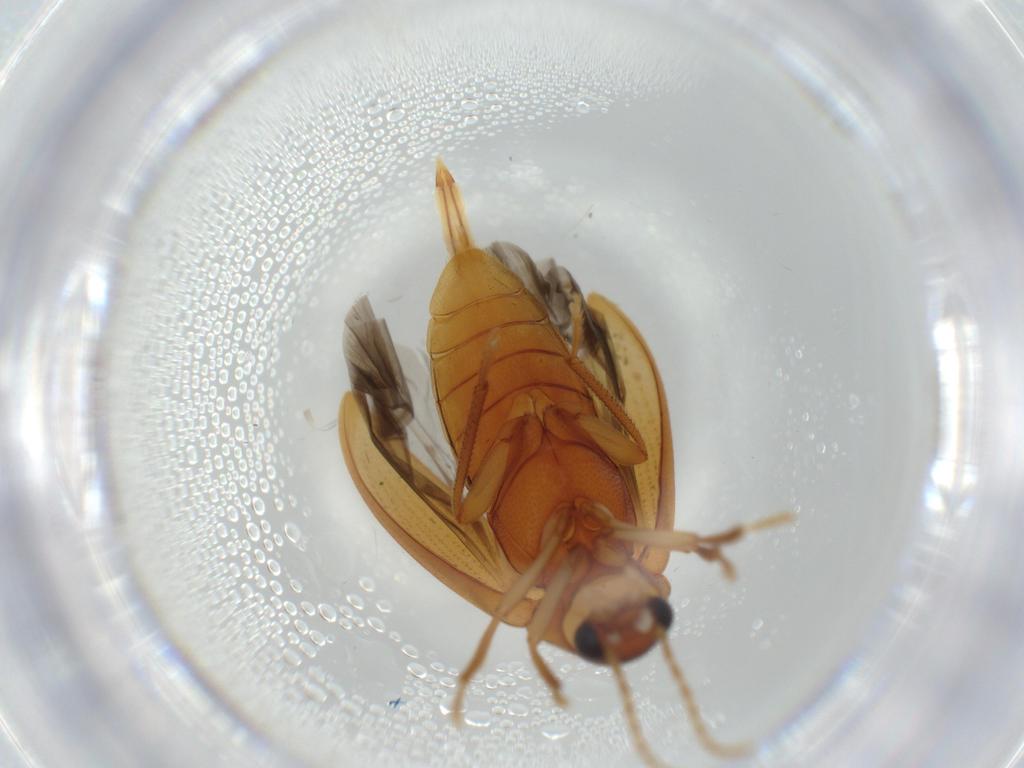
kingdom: Animalia
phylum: Arthropoda
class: Insecta
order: Coleoptera
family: Ptilodactylidae
